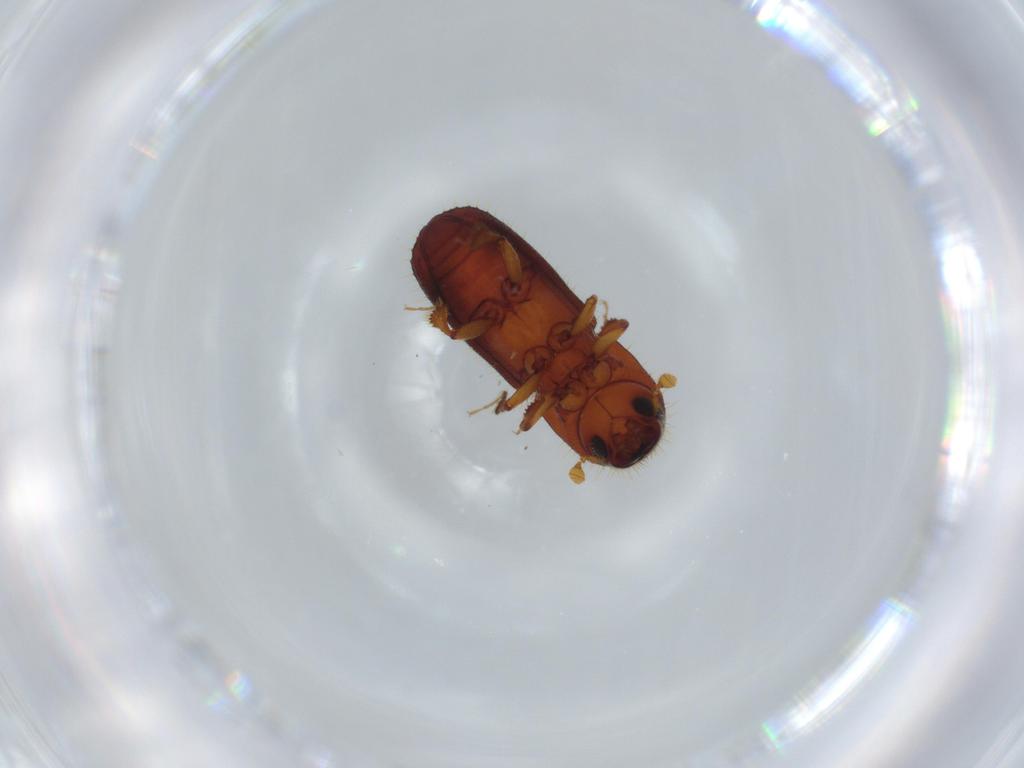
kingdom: Animalia
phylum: Arthropoda
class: Insecta
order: Coleoptera
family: Curculionidae
